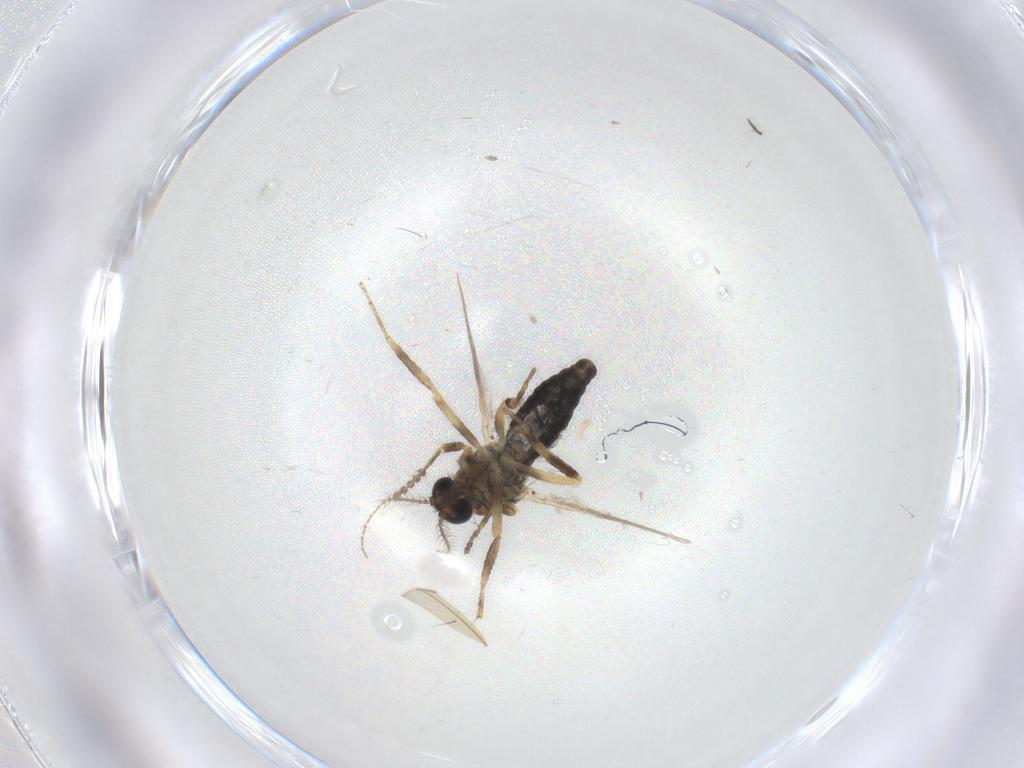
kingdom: Animalia
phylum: Arthropoda
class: Insecta
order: Diptera
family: Ceratopogonidae
